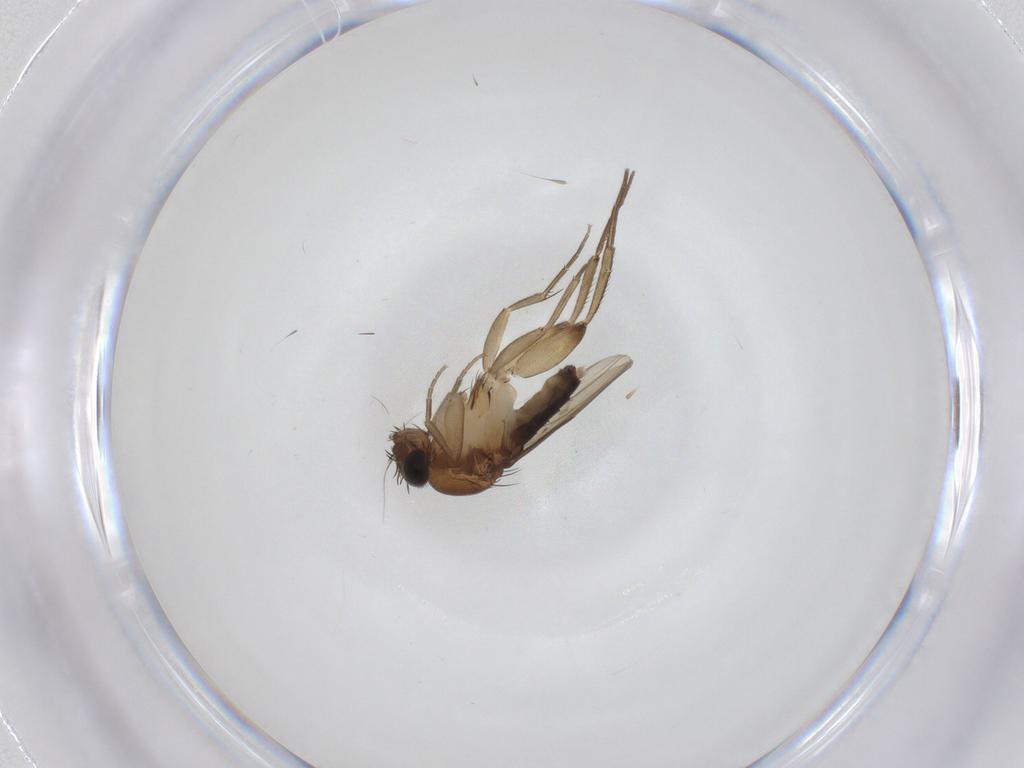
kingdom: Animalia
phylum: Arthropoda
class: Insecta
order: Diptera
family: Phoridae
